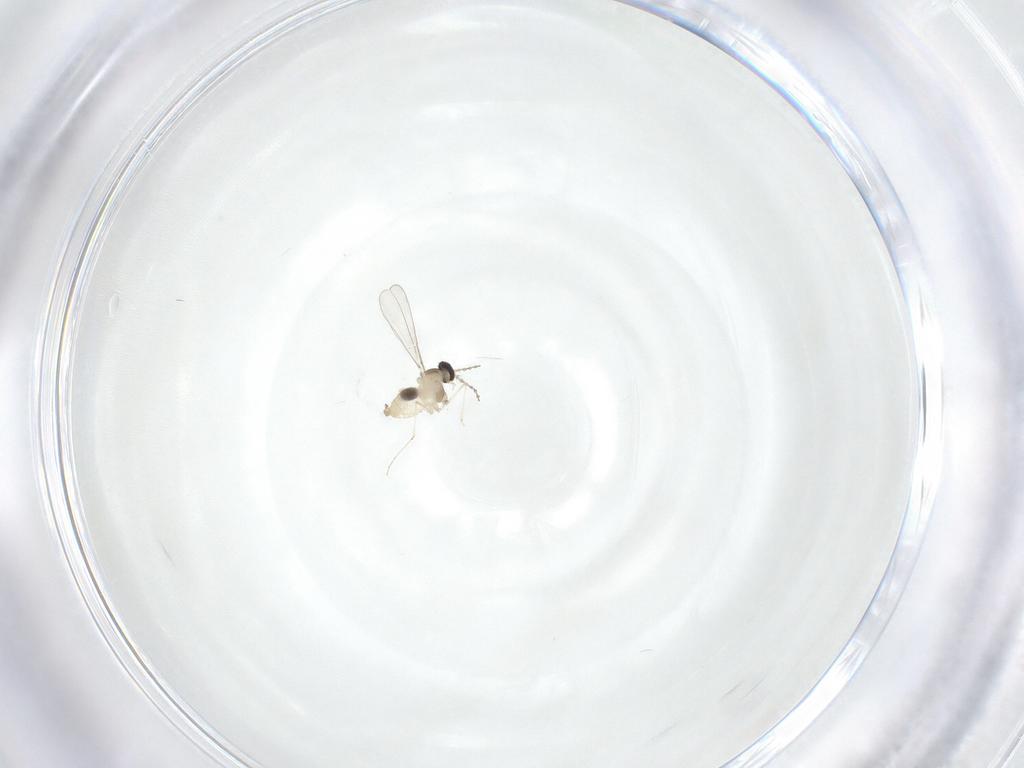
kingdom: Animalia
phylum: Arthropoda
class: Insecta
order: Diptera
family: Cecidomyiidae
